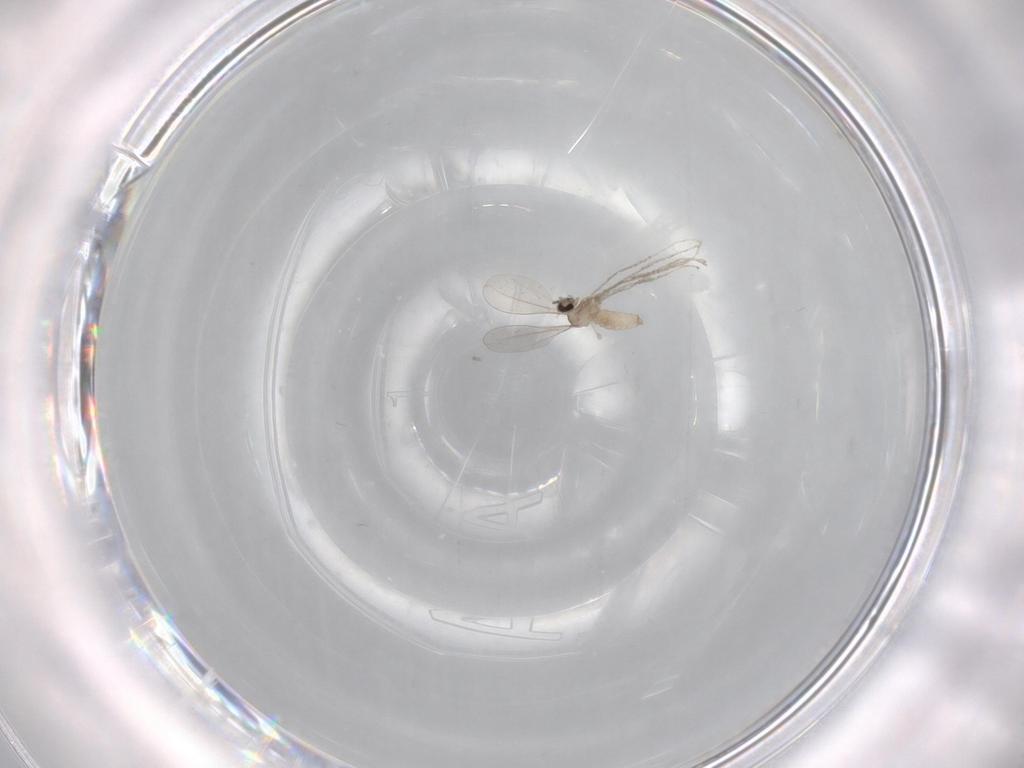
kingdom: Animalia
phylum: Arthropoda
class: Insecta
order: Diptera
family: Cecidomyiidae
